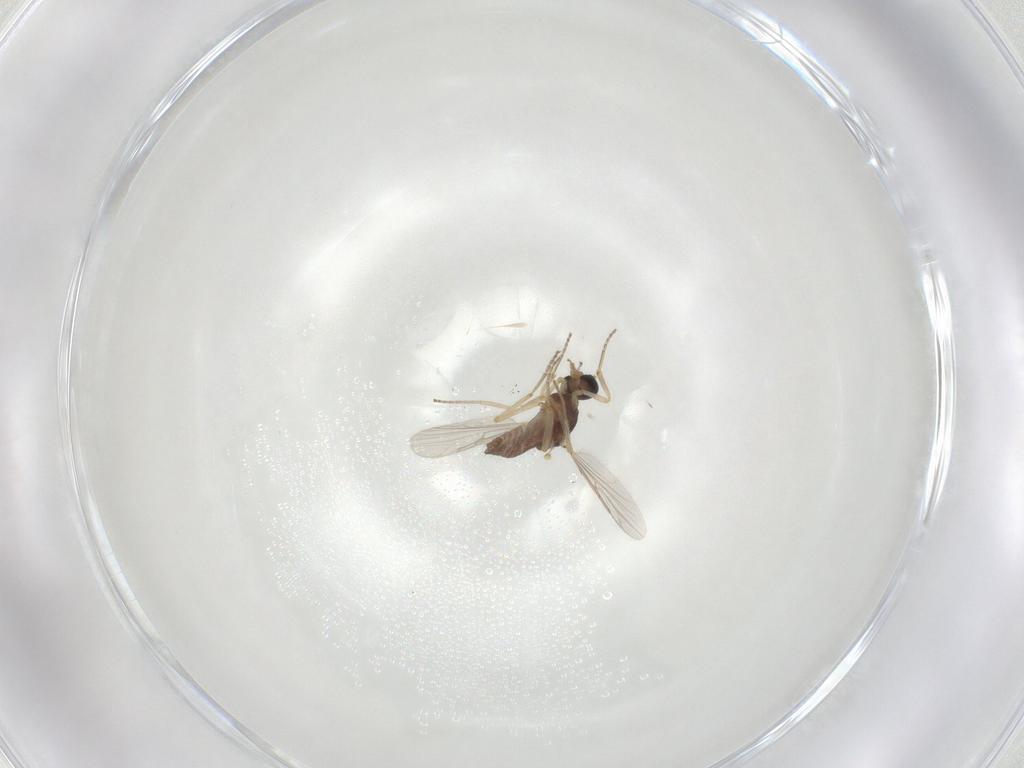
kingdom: Animalia
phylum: Arthropoda
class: Insecta
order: Diptera
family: Ceratopogonidae
